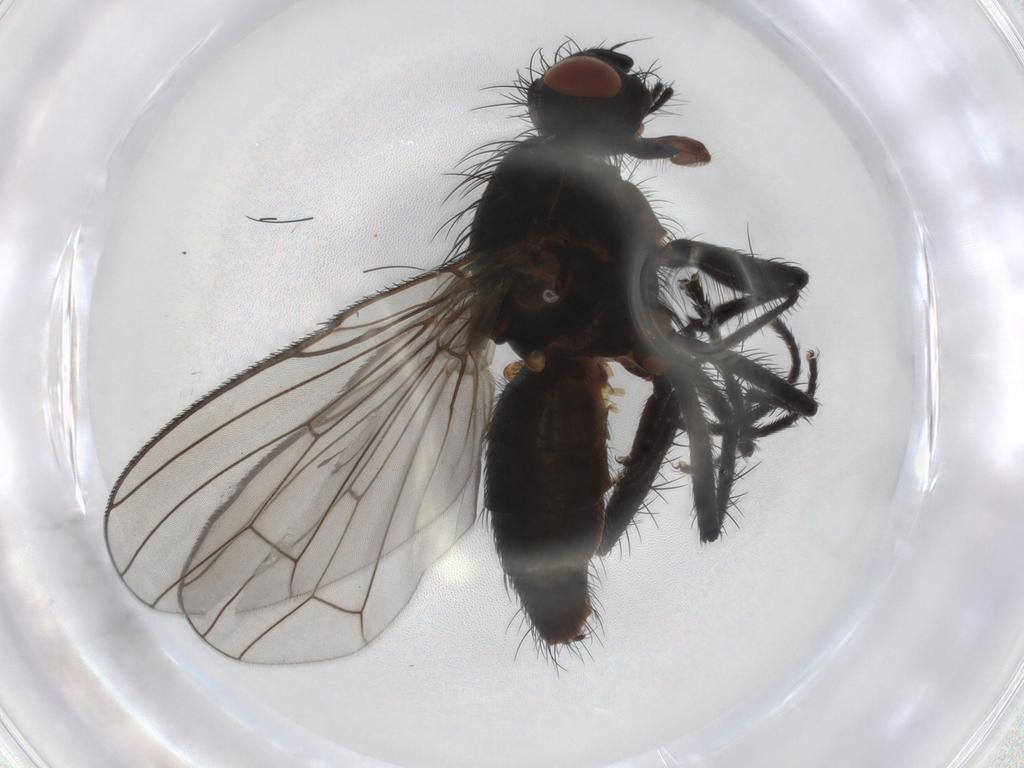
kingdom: Animalia
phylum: Arthropoda
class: Insecta
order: Diptera
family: Anthomyiidae
